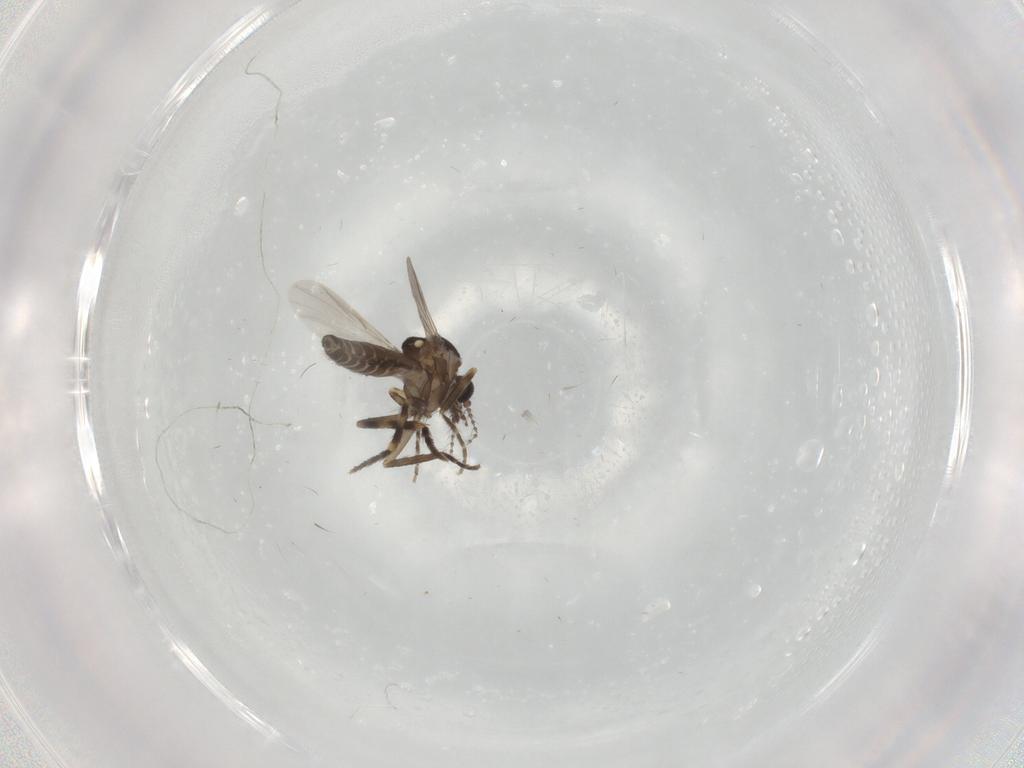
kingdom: Animalia
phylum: Arthropoda
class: Insecta
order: Diptera
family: Ceratopogonidae
